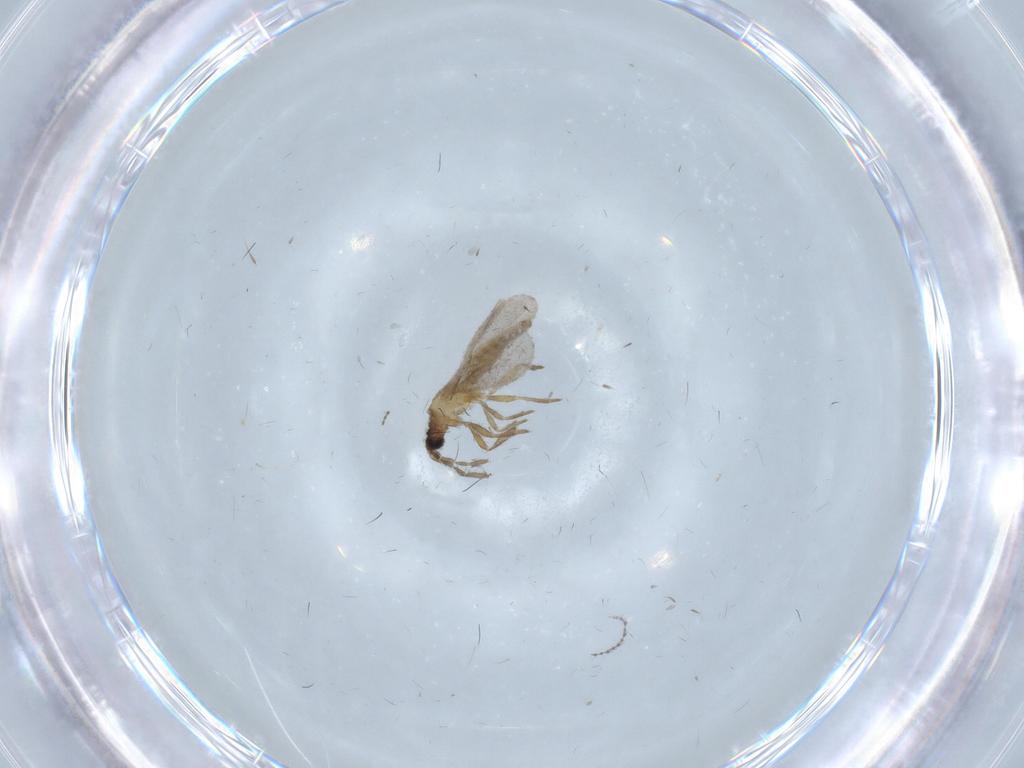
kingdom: Animalia
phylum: Arthropoda
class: Insecta
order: Hemiptera
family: Enicocephalidae
